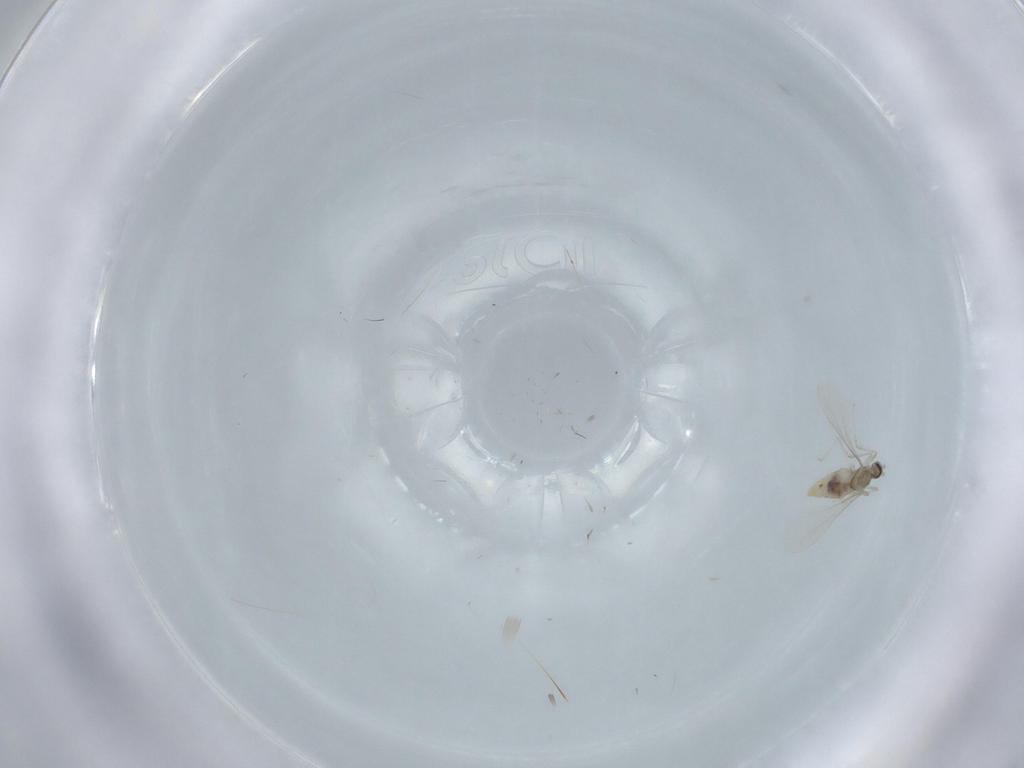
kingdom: Animalia
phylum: Arthropoda
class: Insecta
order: Diptera
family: Cecidomyiidae
